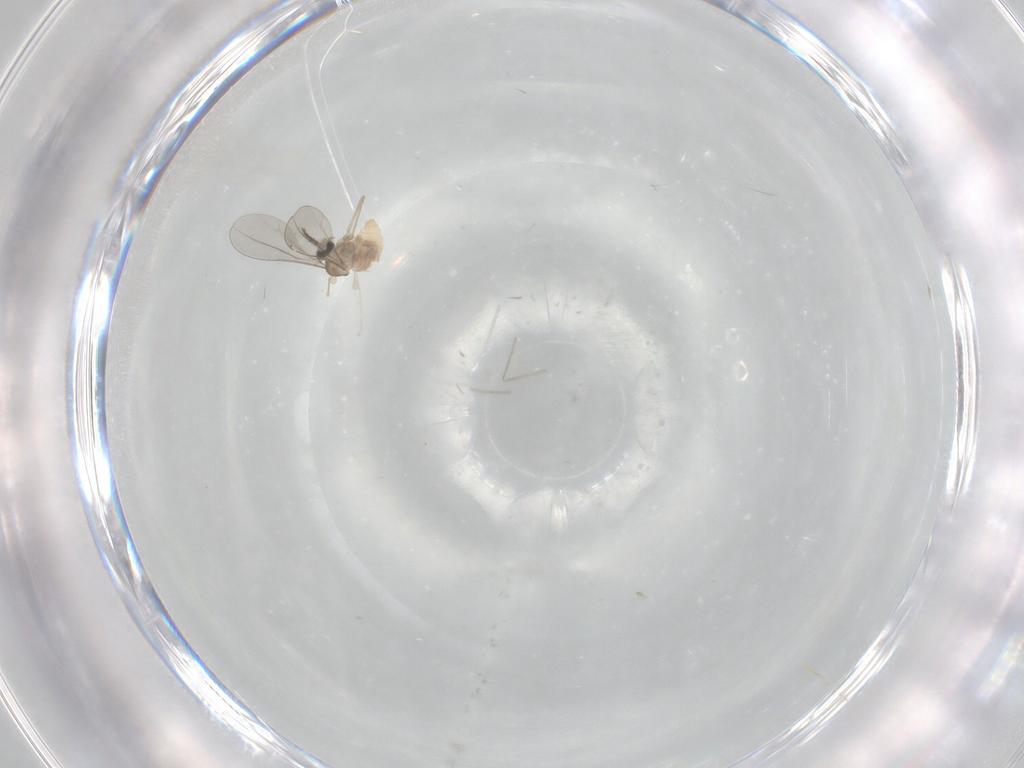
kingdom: Animalia
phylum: Arthropoda
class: Insecta
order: Diptera
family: Cecidomyiidae
